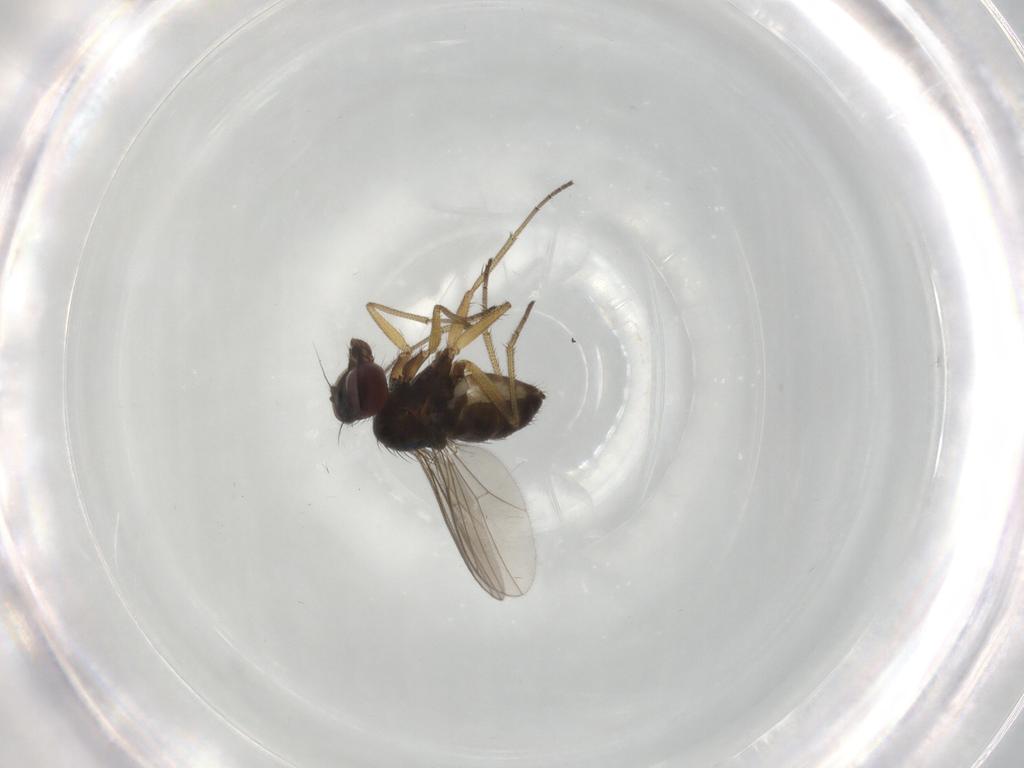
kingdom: Animalia
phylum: Arthropoda
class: Insecta
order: Diptera
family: Dolichopodidae
